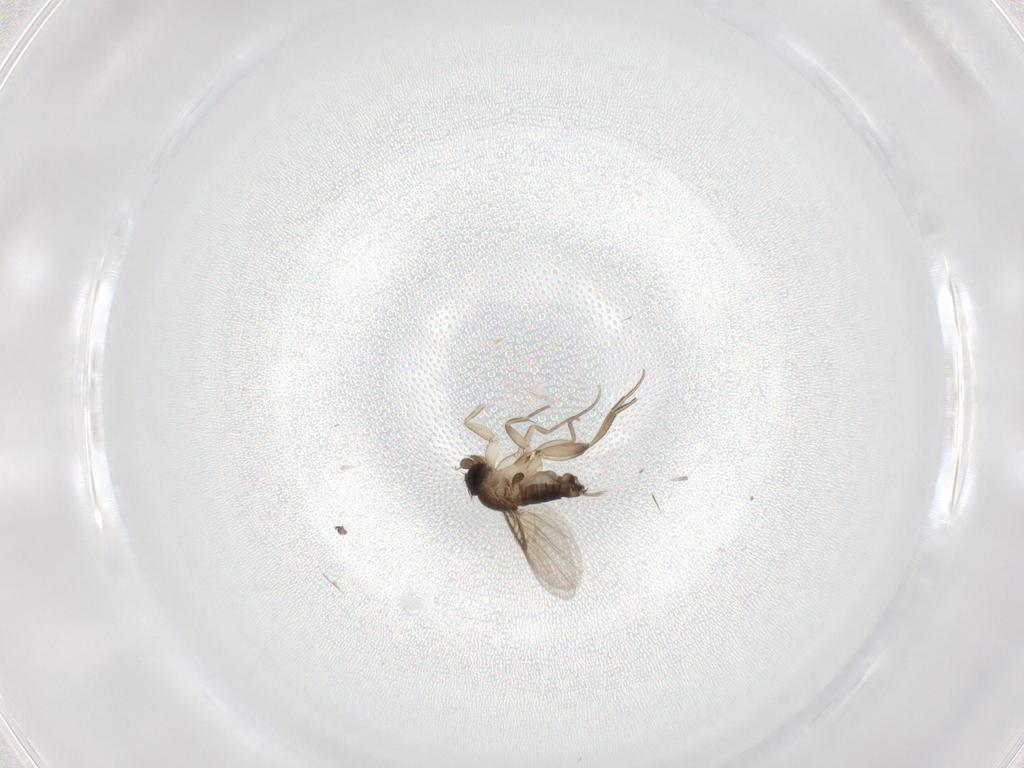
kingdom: Animalia
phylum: Arthropoda
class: Insecta
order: Diptera
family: Phoridae
